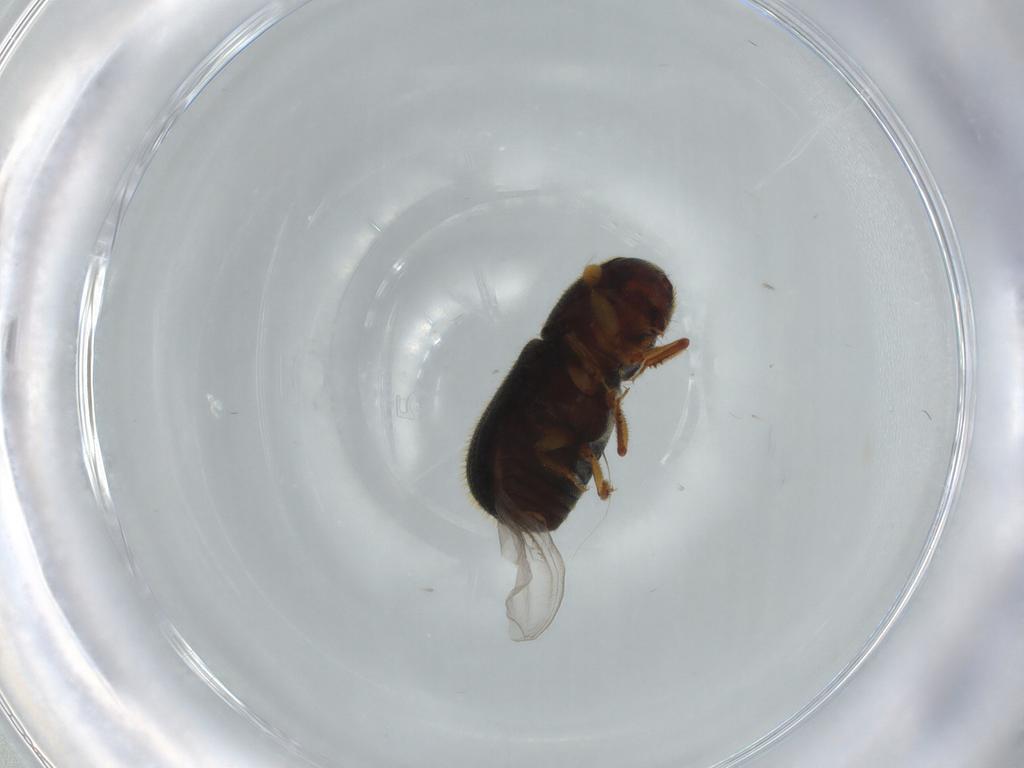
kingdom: Animalia
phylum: Arthropoda
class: Insecta
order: Coleoptera
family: Curculionidae
